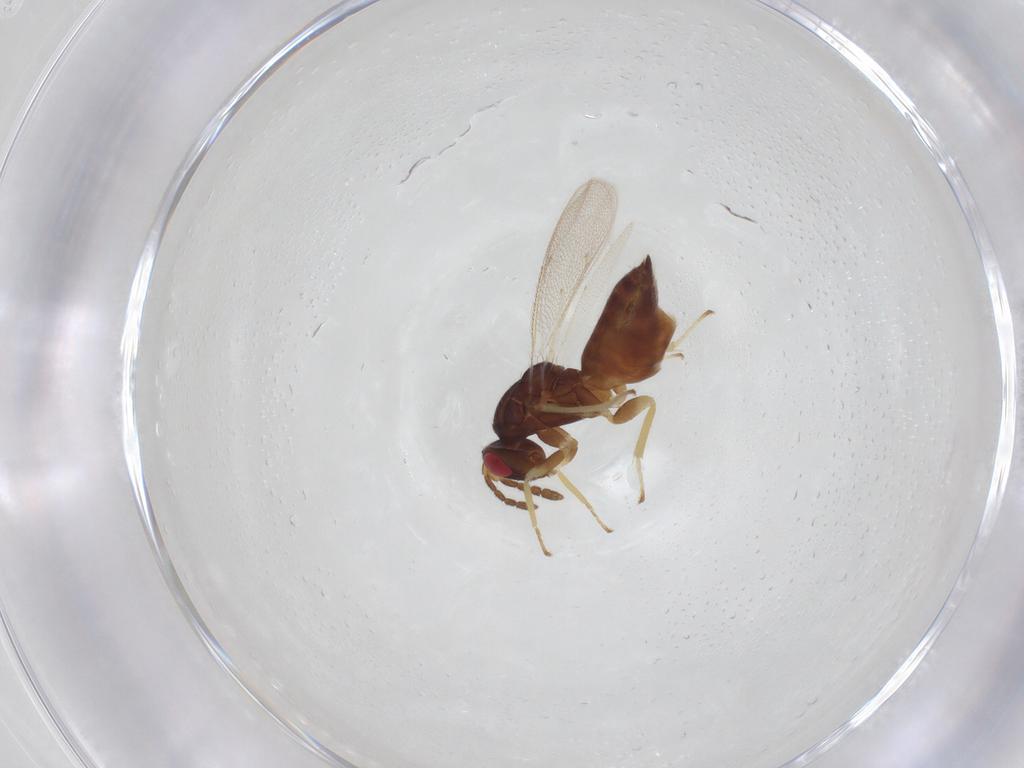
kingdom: Animalia
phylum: Arthropoda
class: Insecta
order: Hymenoptera
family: Eulophidae
